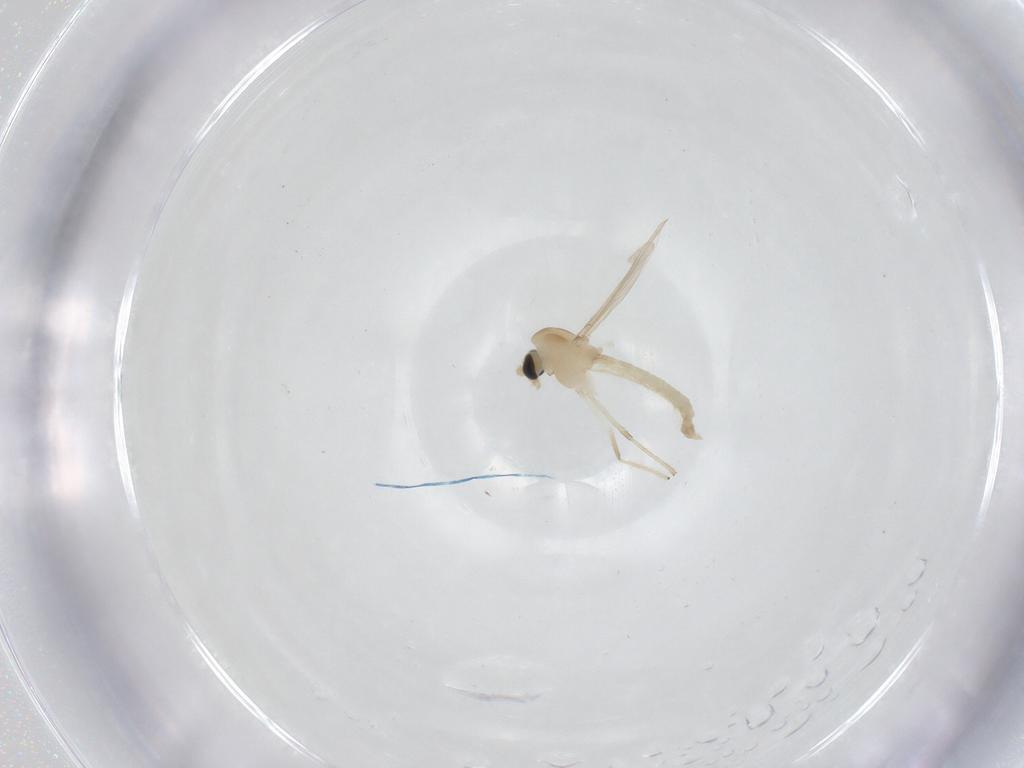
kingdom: Animalia
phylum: Arthropoda
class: Insecta
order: Diptera
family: Chironomidae
